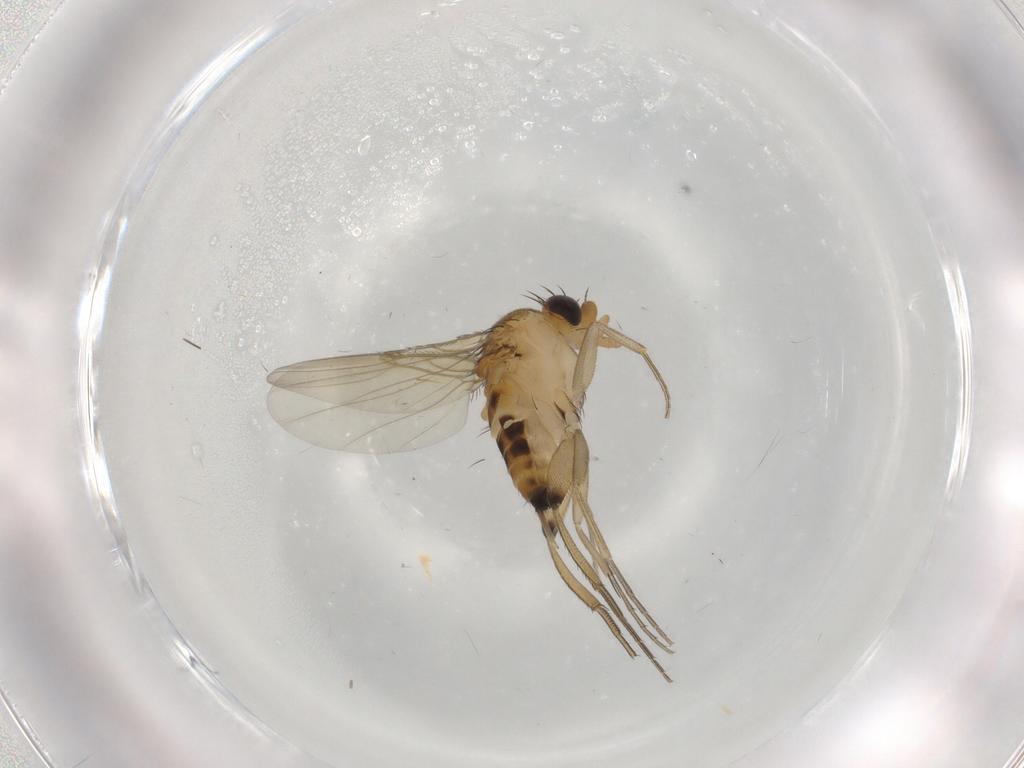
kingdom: Animalia
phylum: Arthropoda
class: Insecta
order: Diptera
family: Phoridae
